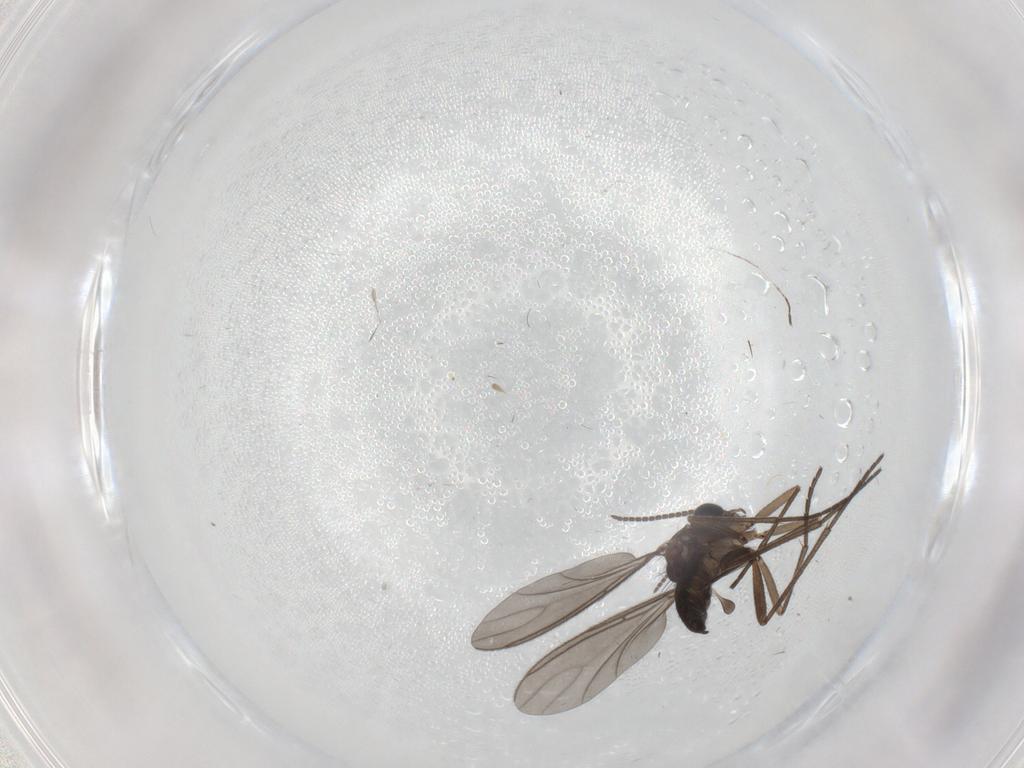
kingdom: Animalia
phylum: Arthropoda
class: Insecta
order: Diptera
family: Sciaridae
